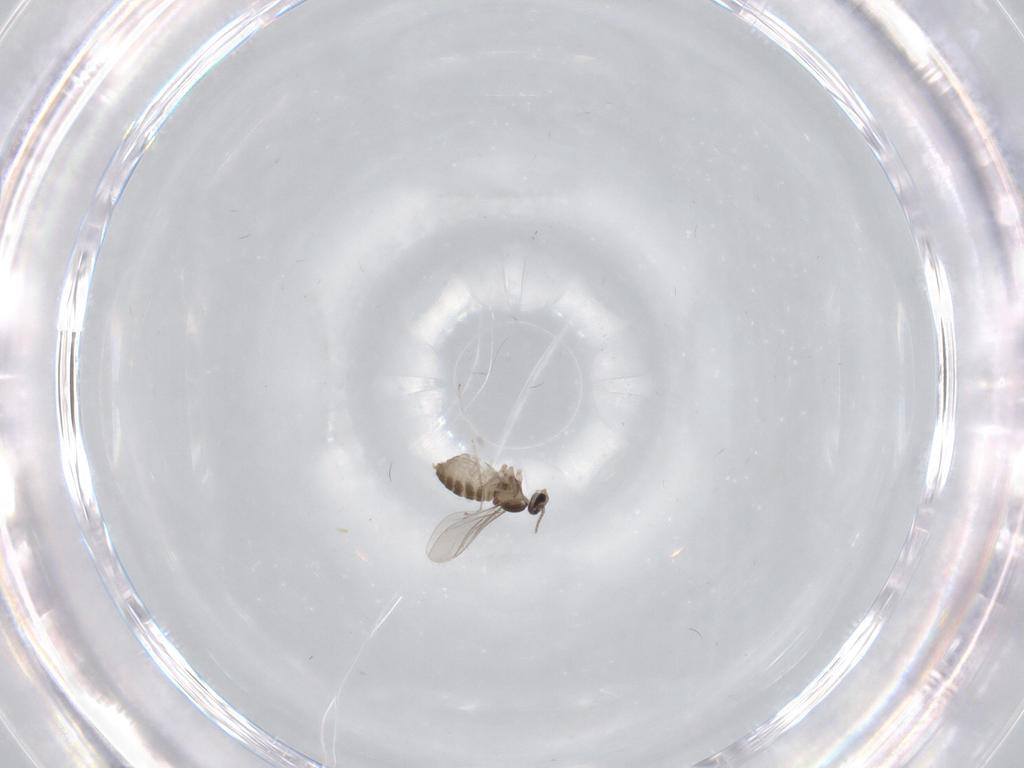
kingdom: Animalia
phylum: Arthropoda
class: Insecta
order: Diptera
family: Cecidomyiidae
